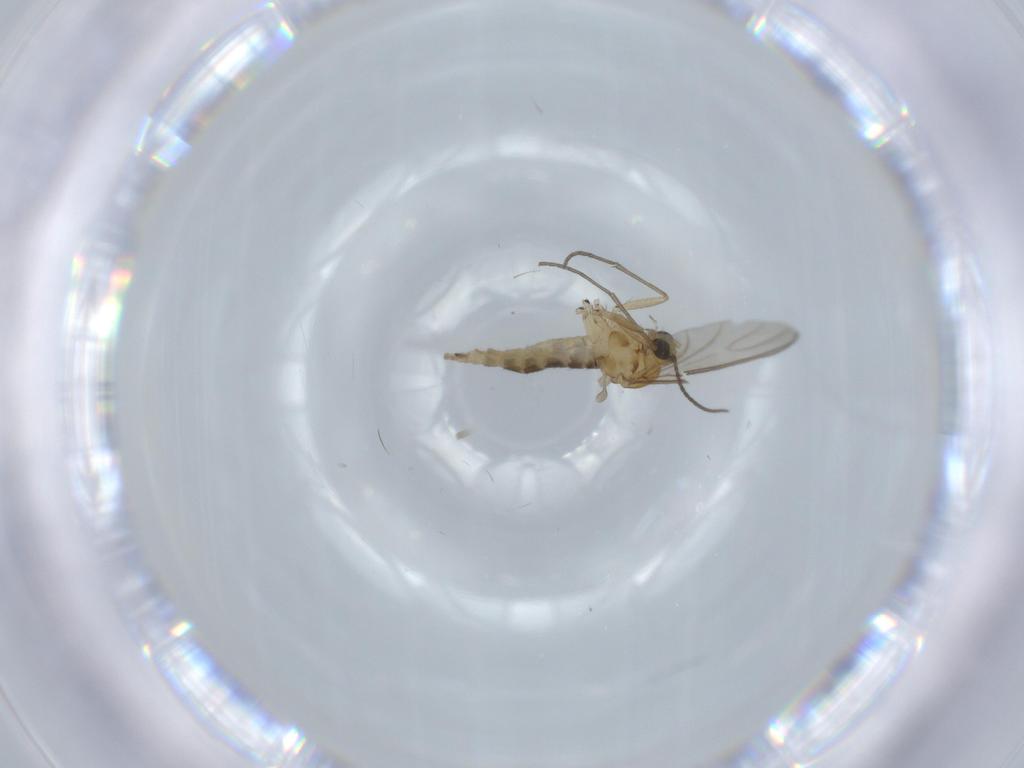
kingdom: Animalia
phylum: Arthropoda
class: Insecta
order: Diptera
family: Sciaridae
